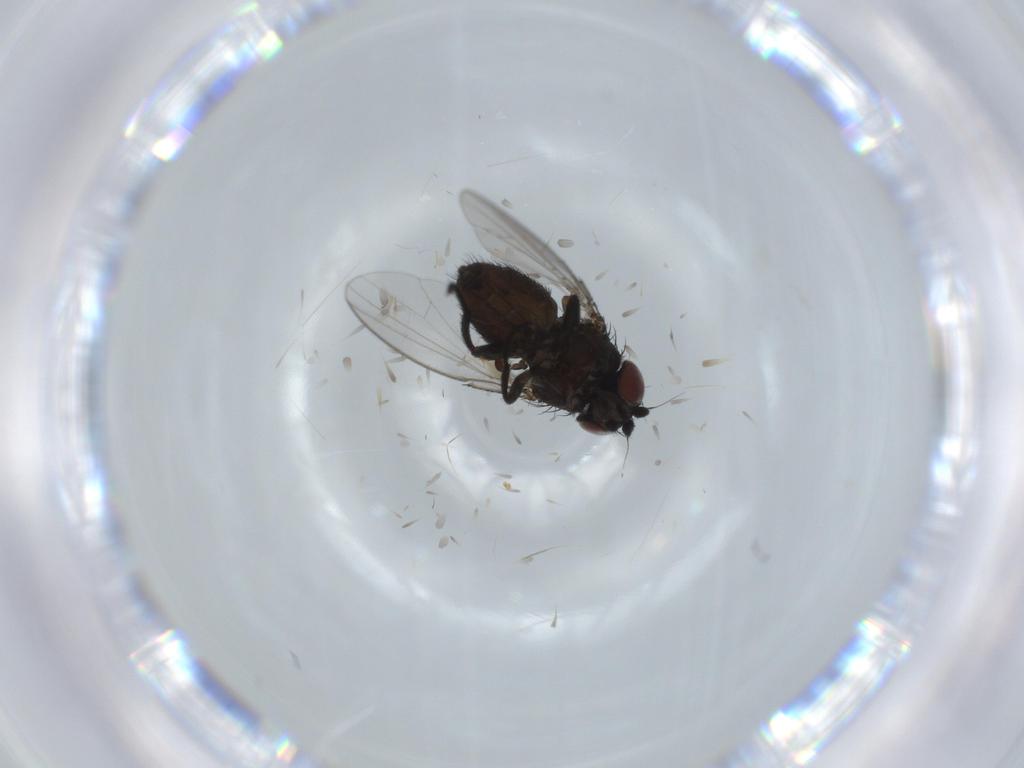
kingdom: Animalia
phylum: Arthropoda
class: Insecta
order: Diptera
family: Milichiidae
